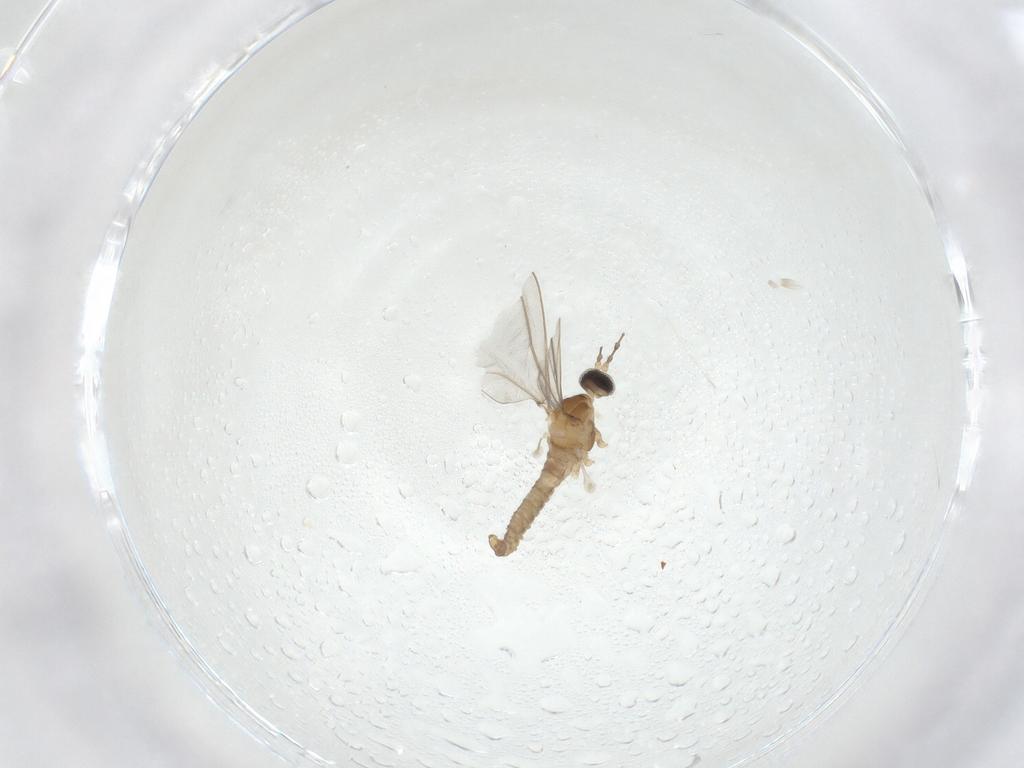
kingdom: Animalia
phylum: Arthropoda
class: Insecta
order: Diptera
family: Cecidomyiidae
